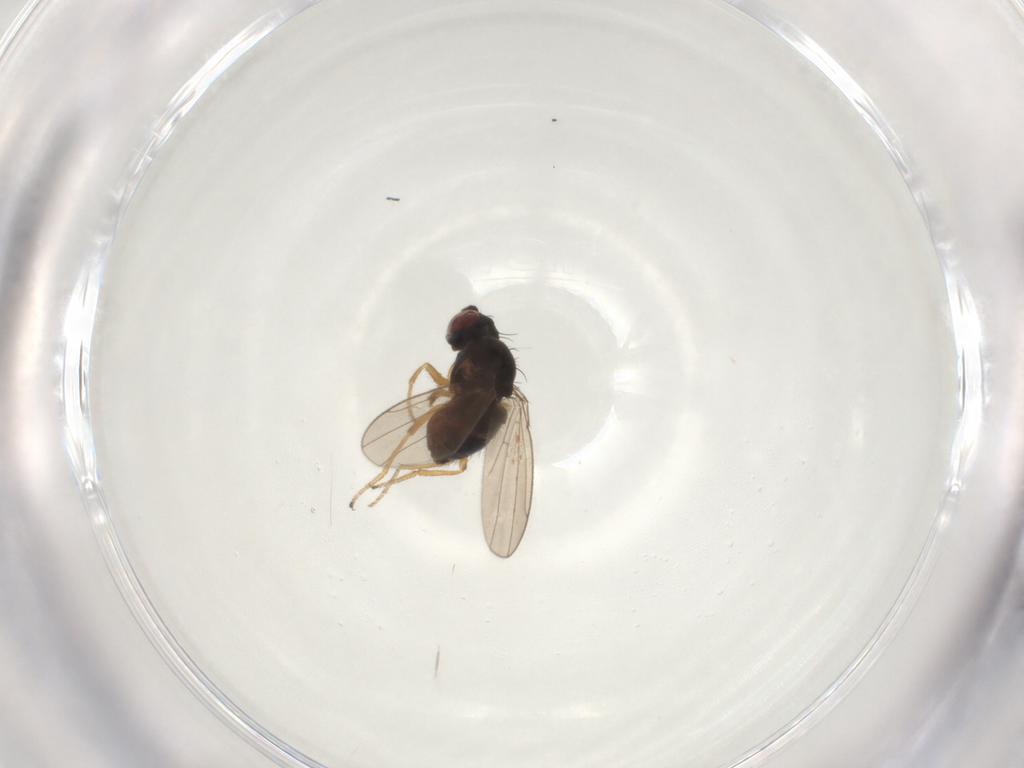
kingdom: Animalia
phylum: Arthropoda
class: Insecta
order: Diptera
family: Ephydridae
